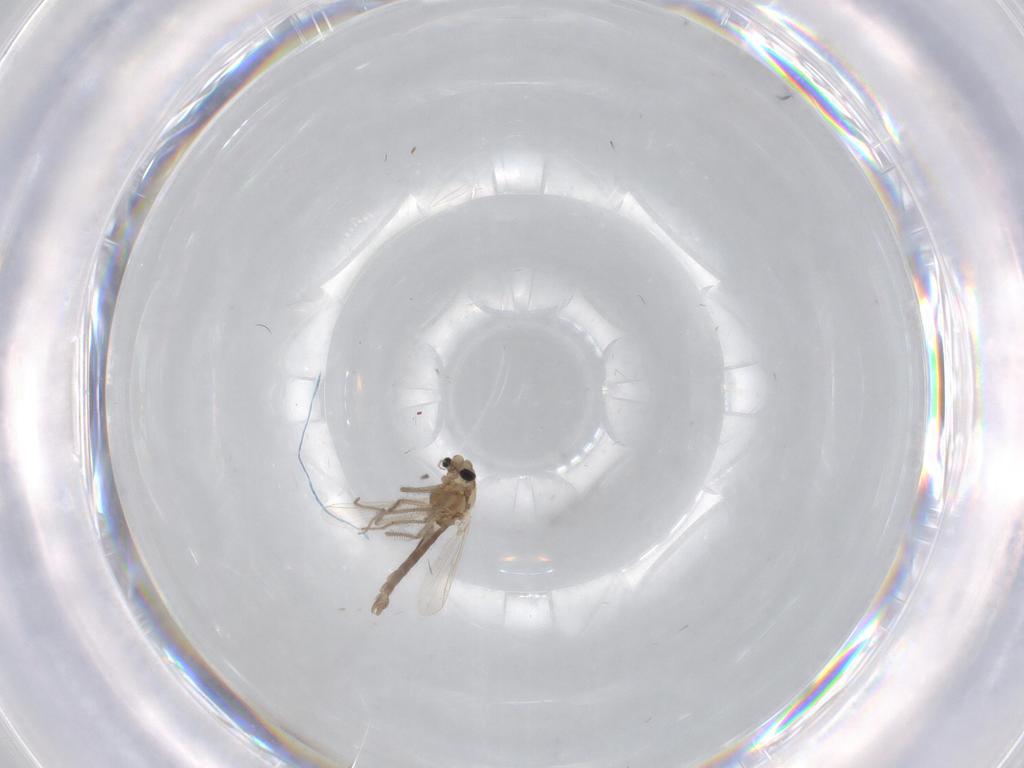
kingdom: Animalia
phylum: Arthropoda
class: Insecta
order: Diptera
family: Chironomidae
